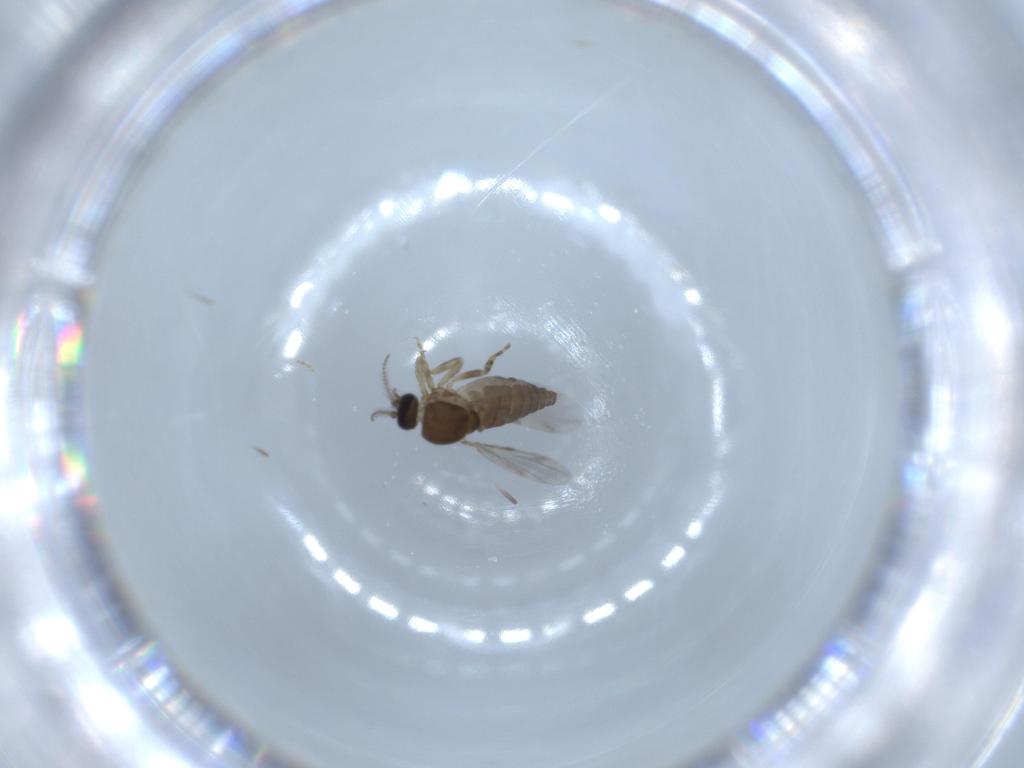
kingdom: Animalia
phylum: Arthropoda
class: Insecta
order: Diptera
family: Ceratopogonidae
